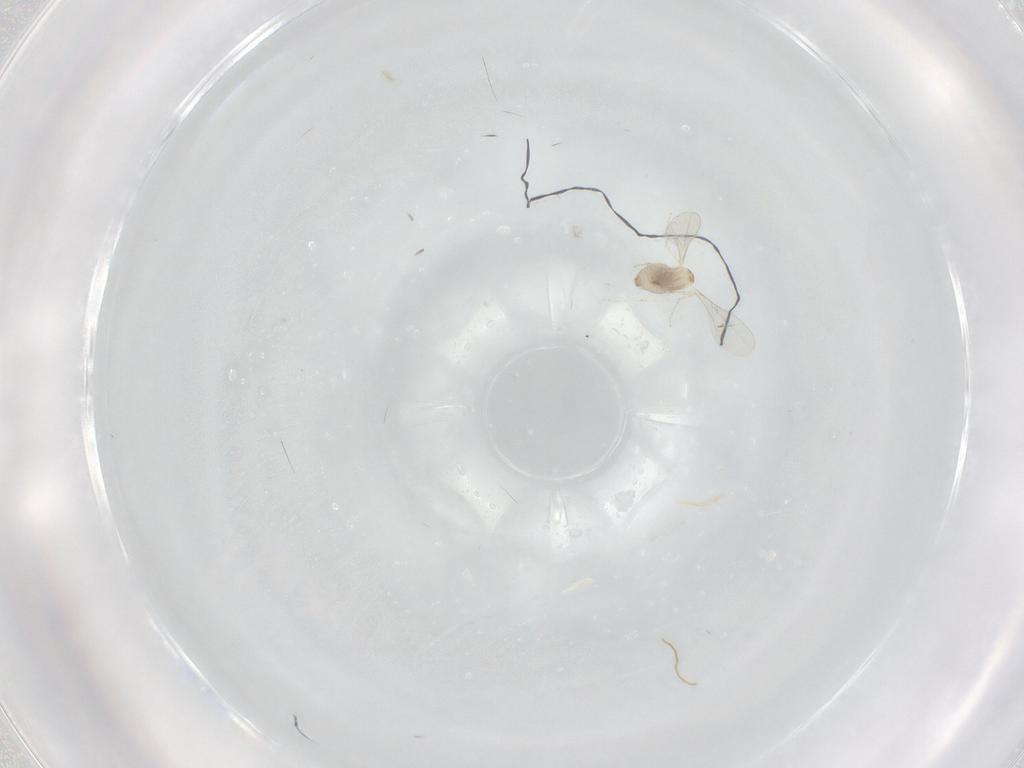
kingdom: Animalia
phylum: Arthropoda
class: Insecta
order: Diptera
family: Cecidomyiidae
